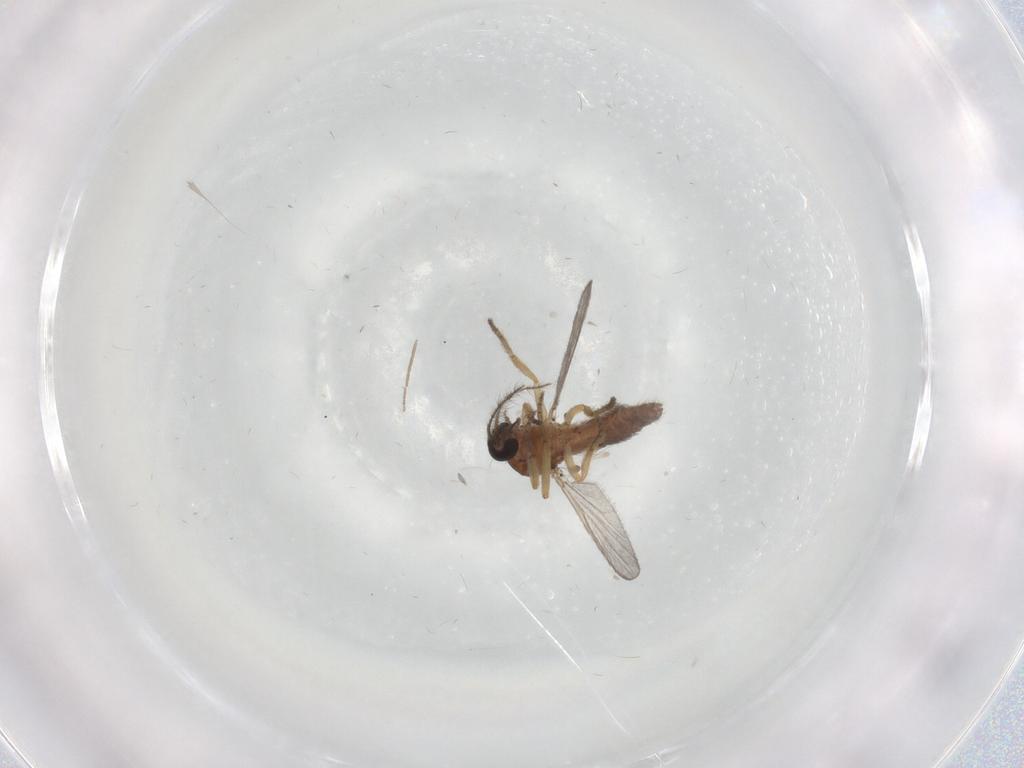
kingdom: Animalia
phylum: Arthropoda
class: Insecta
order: Diptera
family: Ceratopogonidae
